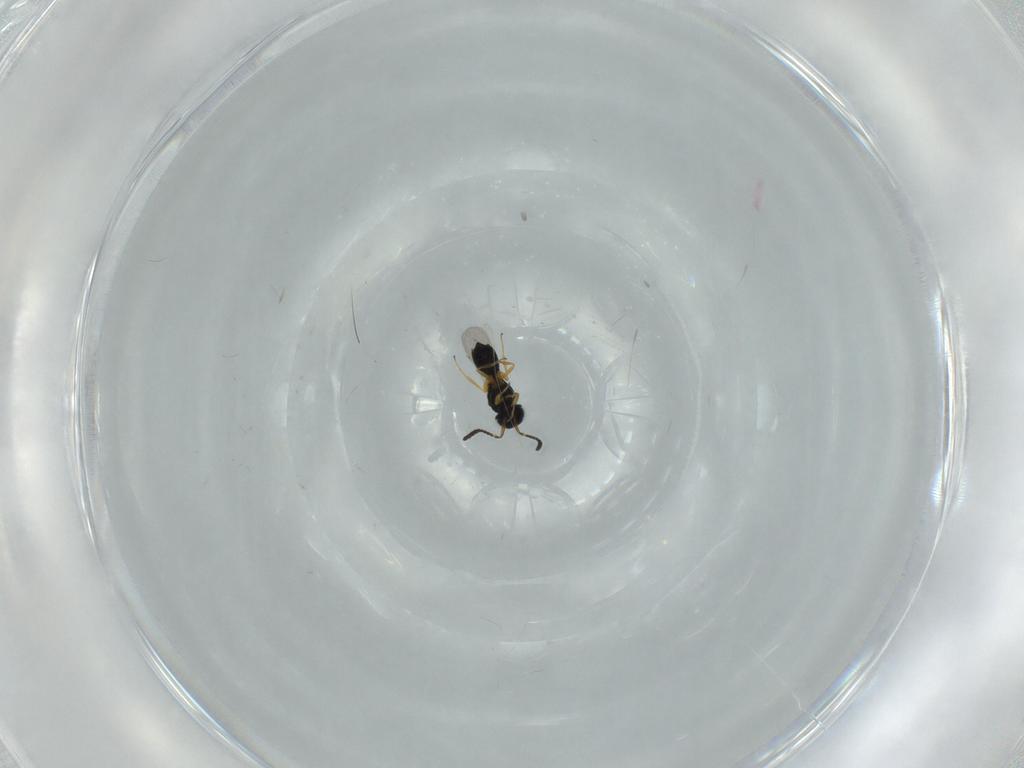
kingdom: Animalia
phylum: Arthropoda
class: Insecta
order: Hymenoptera
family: Scelionidae
